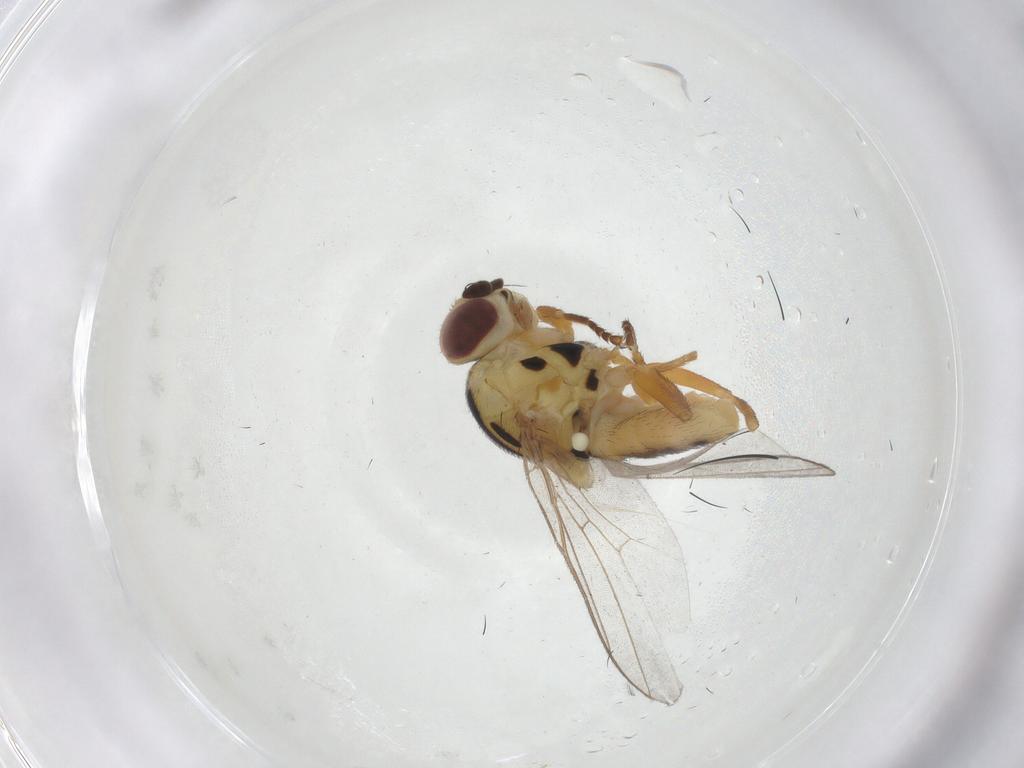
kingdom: Animalia
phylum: Arthropoda
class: Insecta
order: Diptera
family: Chloropidae
